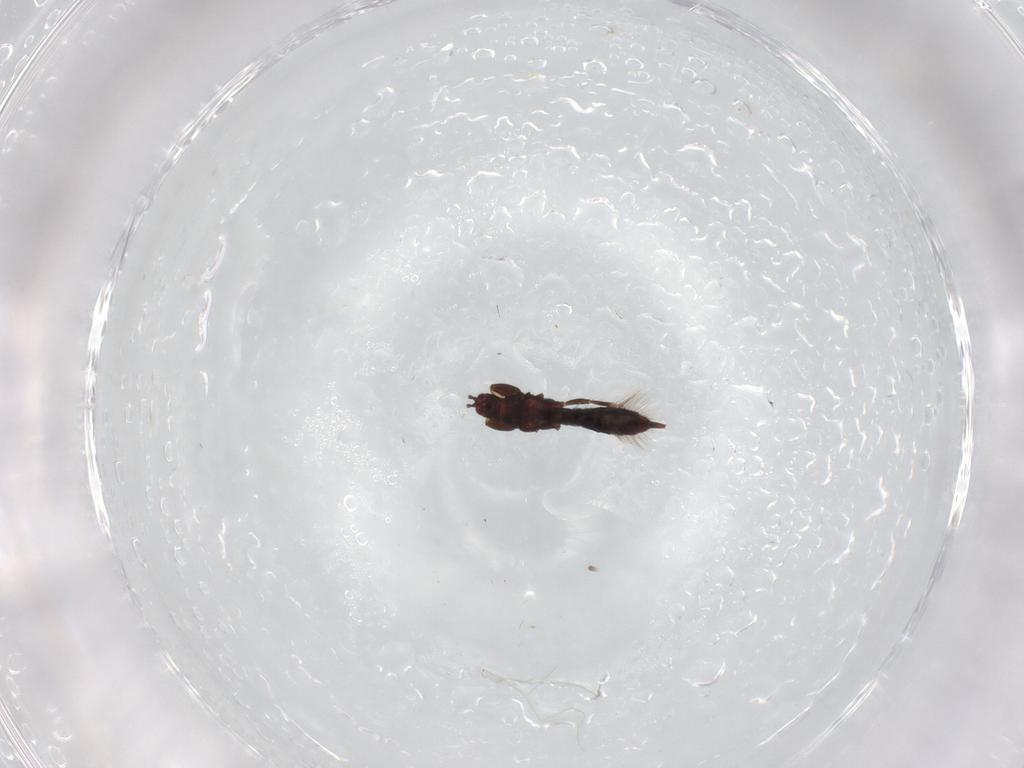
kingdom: Animalia
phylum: Arthropoda
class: Insecta
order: Thysanoptera
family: Phlaeothripidae
